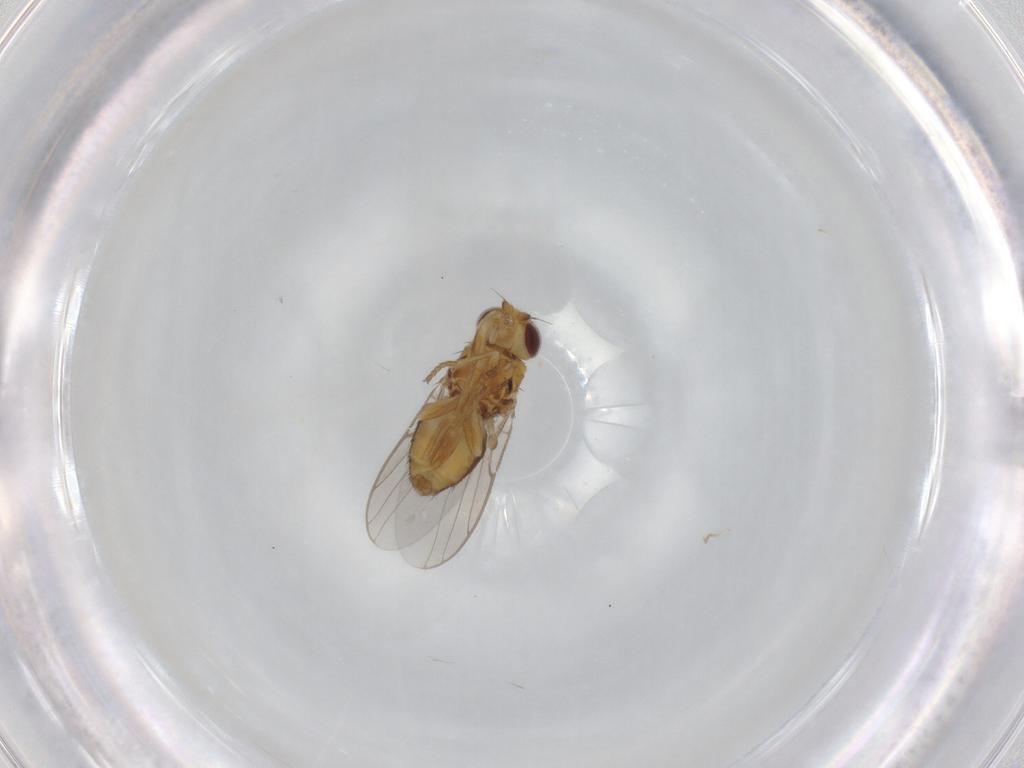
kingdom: Animalia
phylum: Arthropoda
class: Insecta
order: Diptera
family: Chloropidae
